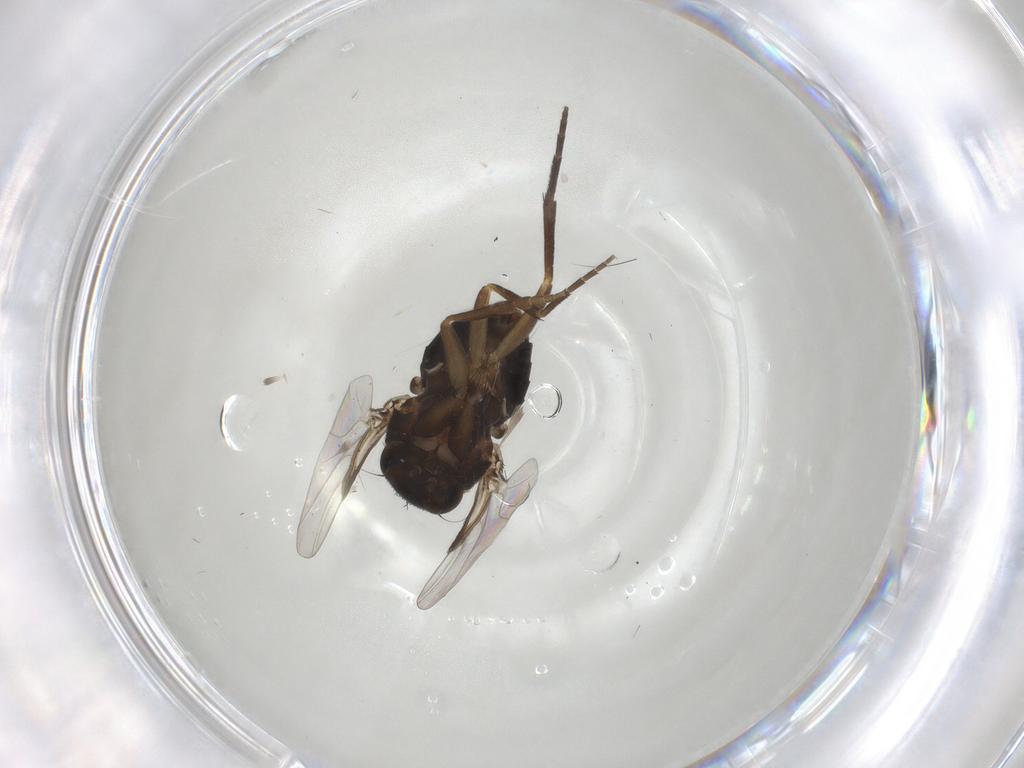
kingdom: Animalia
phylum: Arthropoda
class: Insecta
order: Diptera
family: Phoridae
